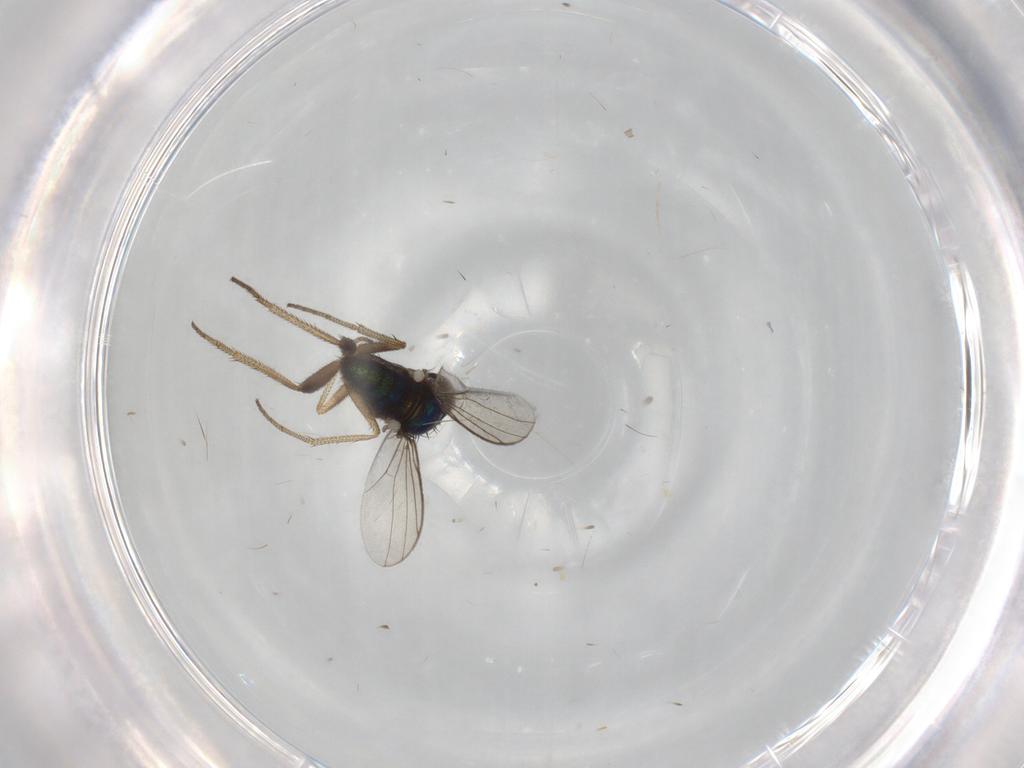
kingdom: Animalia
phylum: Arthropoda
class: Insecta
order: Diptera
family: Dolichopodidae
